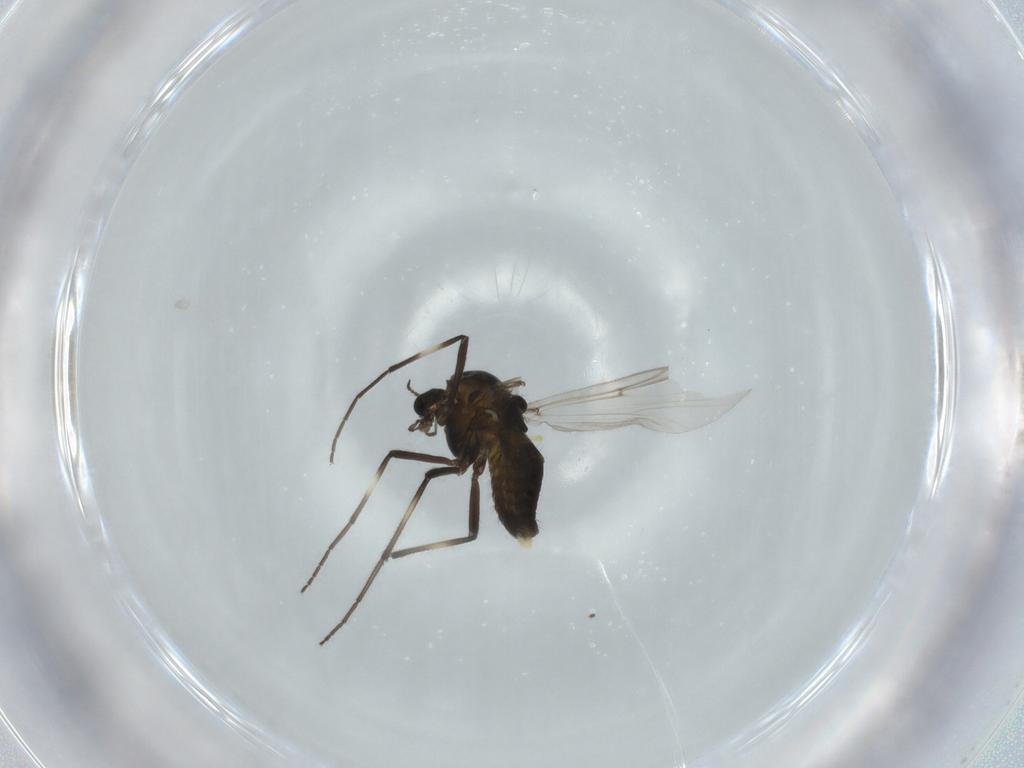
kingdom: Animalia
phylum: Arthropoda
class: Insecta
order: Diptera
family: Chironomidae
